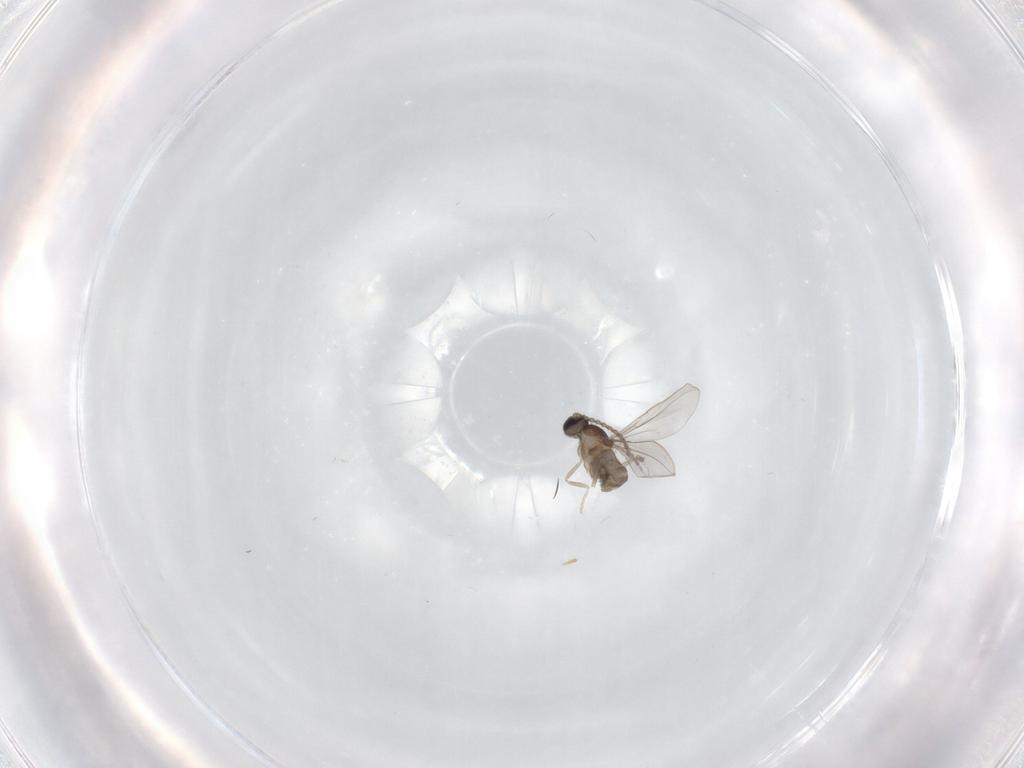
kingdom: Animalia
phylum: Arthropoda
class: Insecta
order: Diptera
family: Cecidomyiidae
